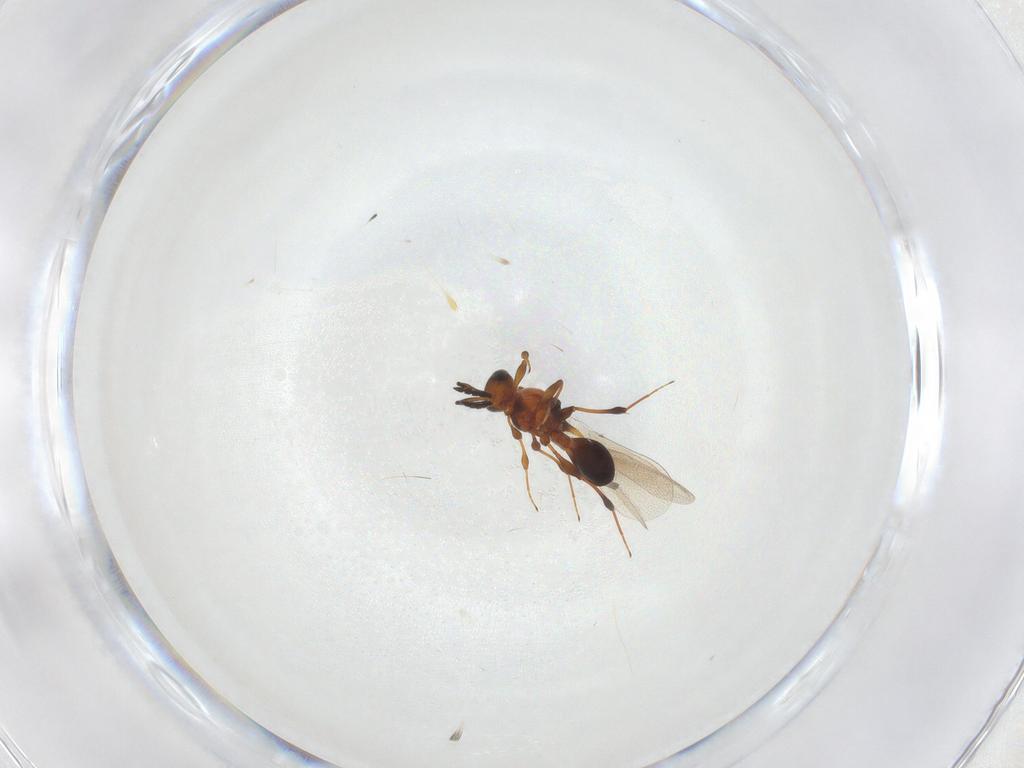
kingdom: Animalia
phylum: Arthropoda
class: Insecta
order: Hymenoptera
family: Platygastridae
